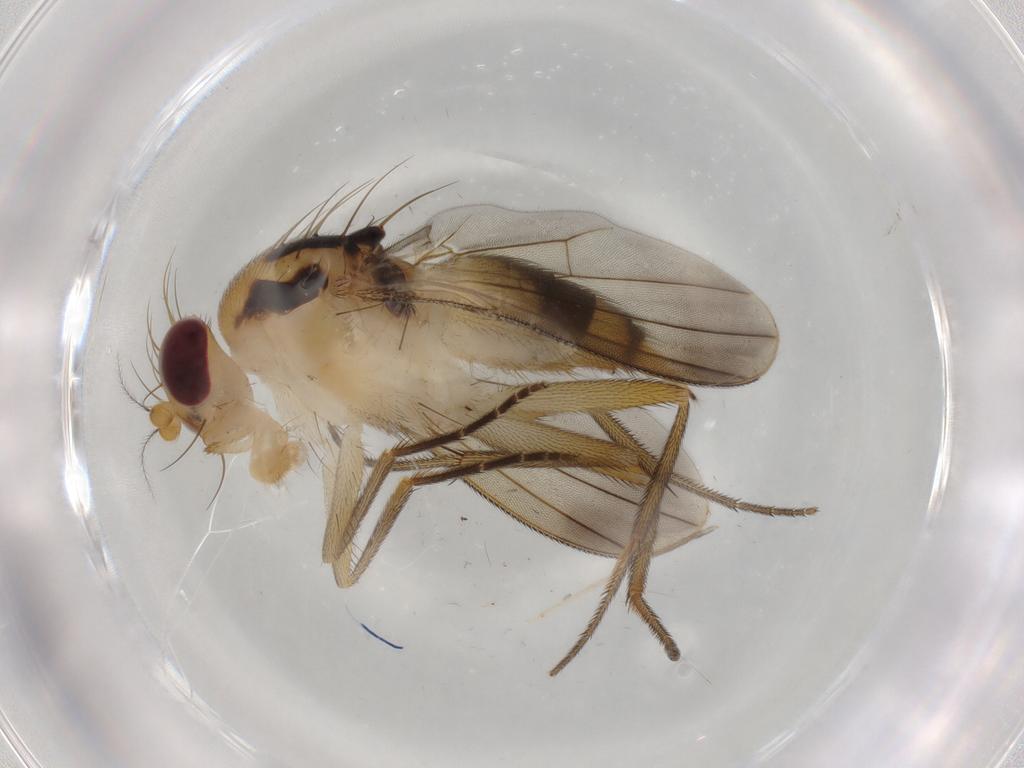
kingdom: Animalia
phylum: Arthropoda
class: Insecta
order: Diptera
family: Clusiidae
